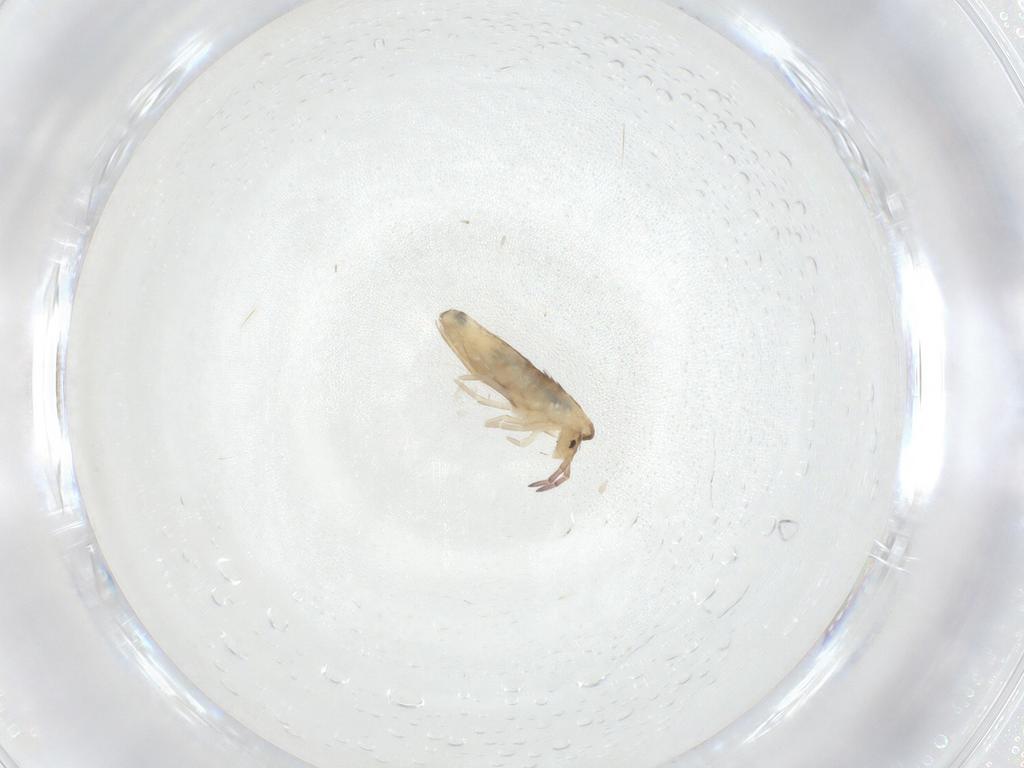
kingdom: Animalia
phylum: Arthropoda
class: Collembola
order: Entomobryomorpha
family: Entomobryidae
